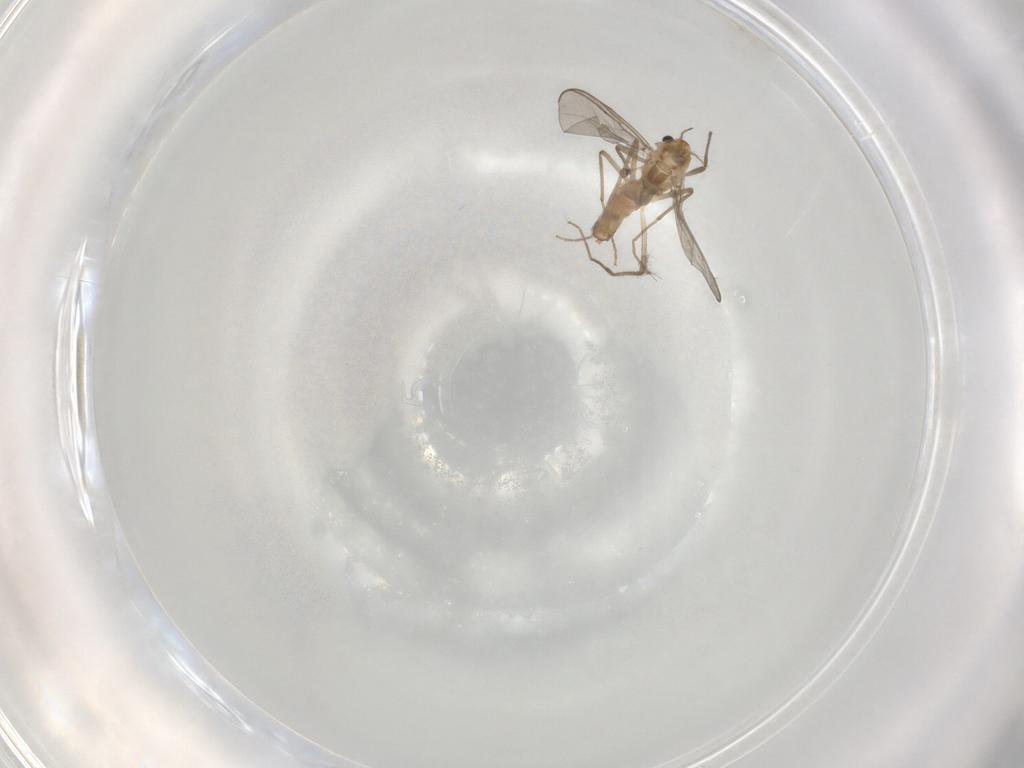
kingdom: Animalia
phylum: Arthropoda
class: Insecta
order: Diptera
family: Chironomidae
